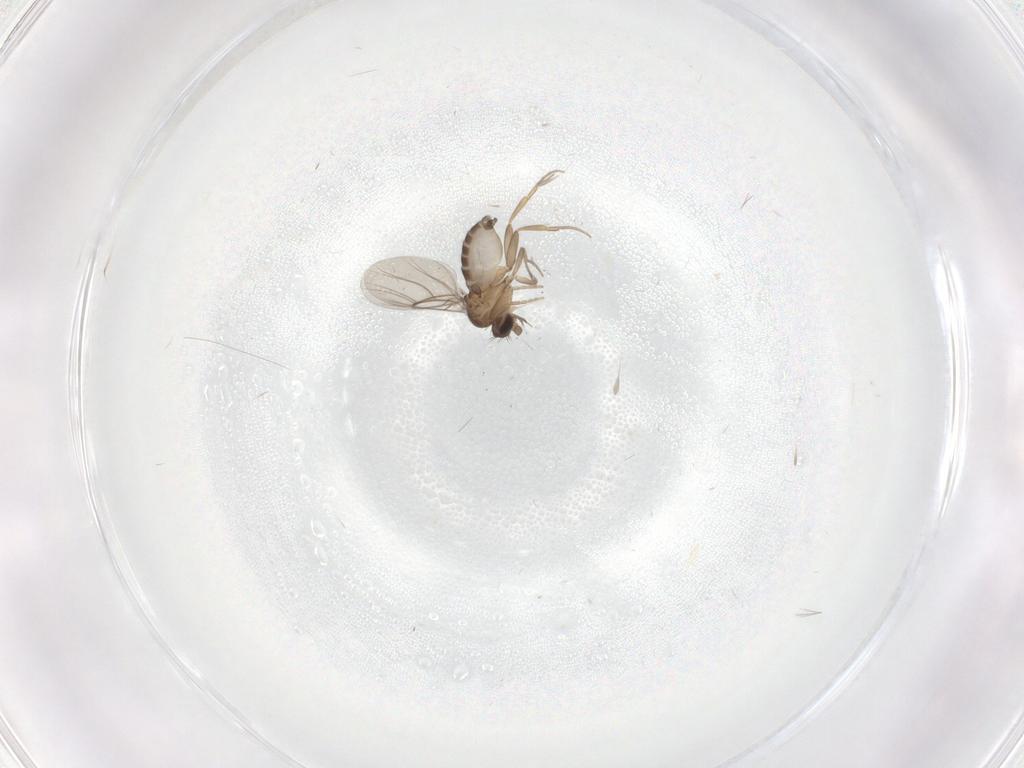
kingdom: Animalia
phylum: Arthropoda
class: Insecta
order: Diptera
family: Phoridae
